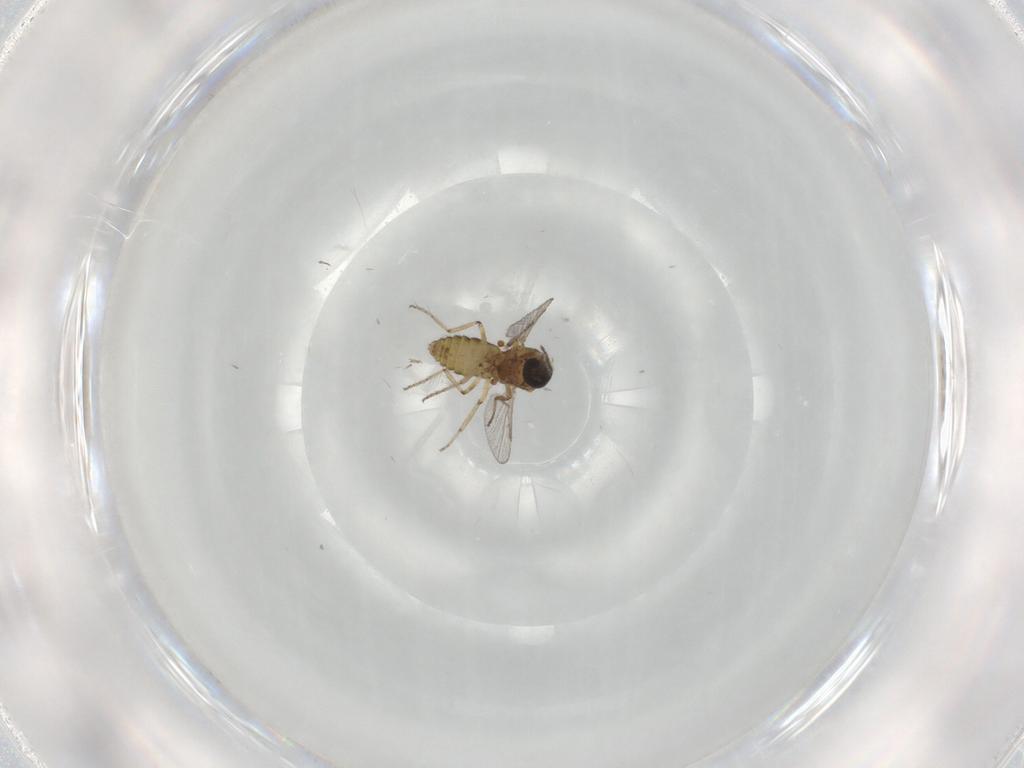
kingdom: Animalia
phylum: Arthropoda
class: Insecta
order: Diptera
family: Ceratopogonidae
